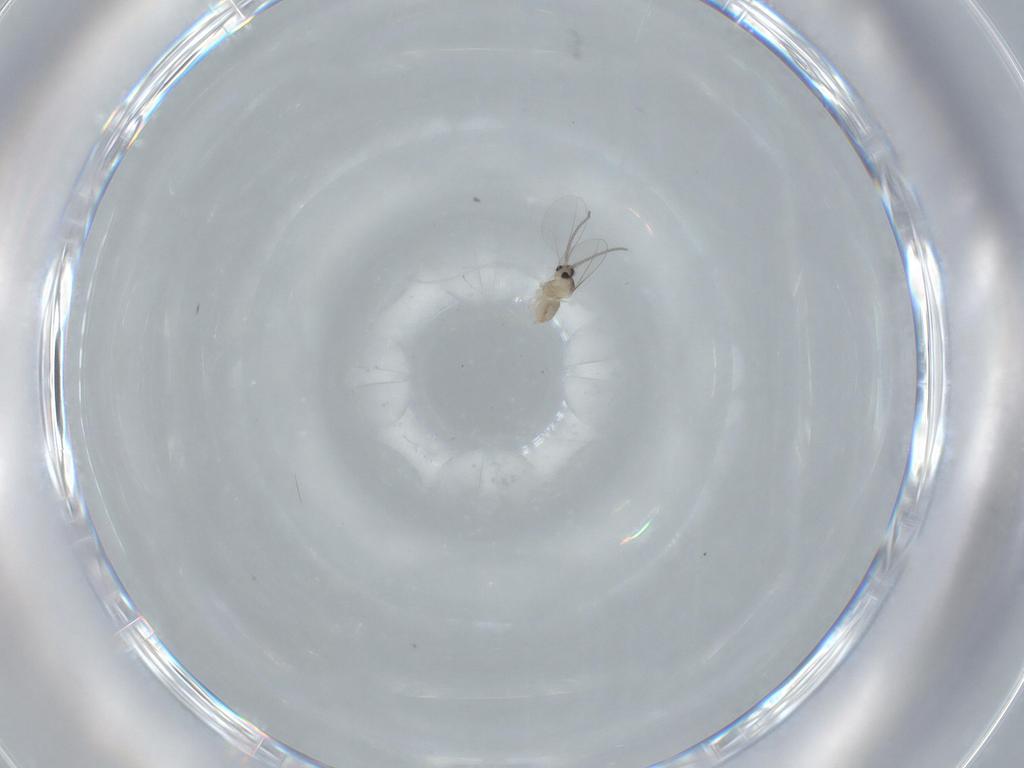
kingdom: Animalia
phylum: Arthropoda
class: Insecta
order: Diptera
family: Psychodidae
